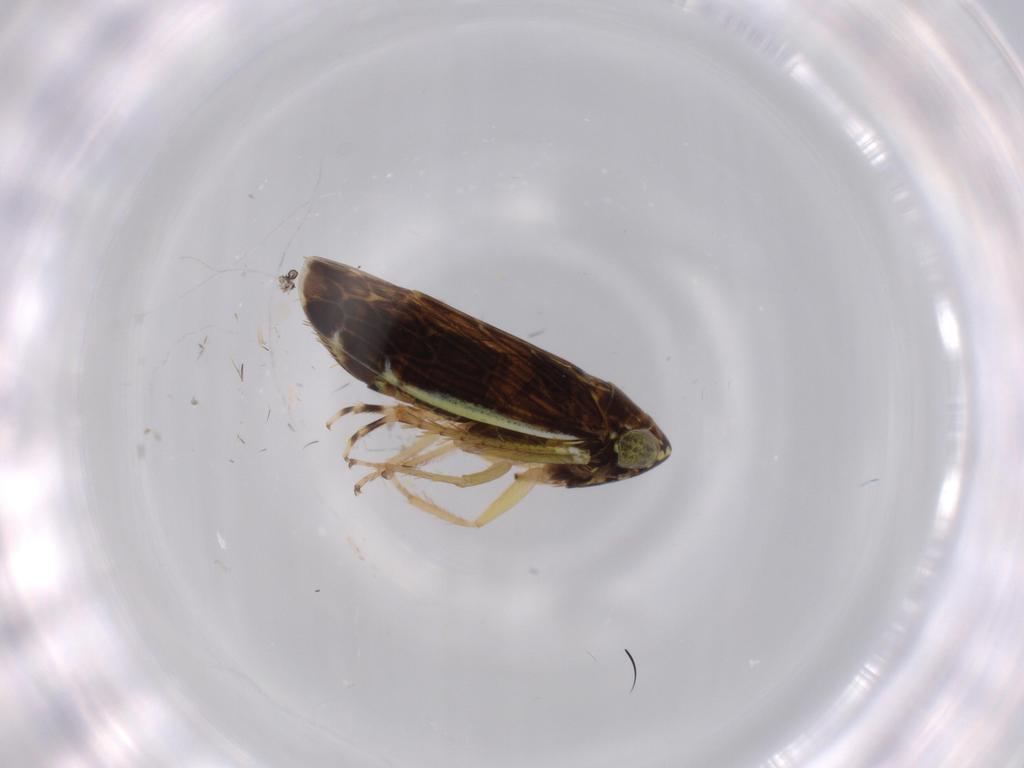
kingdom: Animalia
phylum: Arthropoda
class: Insecta
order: Hemiptera
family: Cicadellidae
